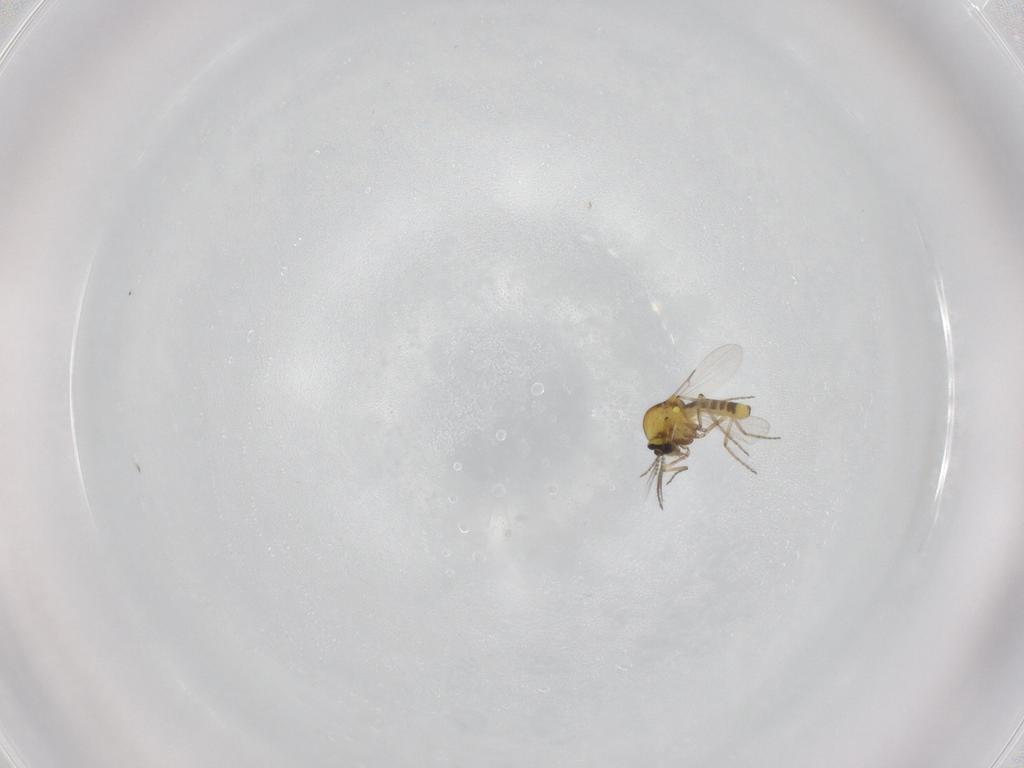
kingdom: Animalia
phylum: Arthropoda
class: Insecta
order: Diptera
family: Ceratopogonidae
